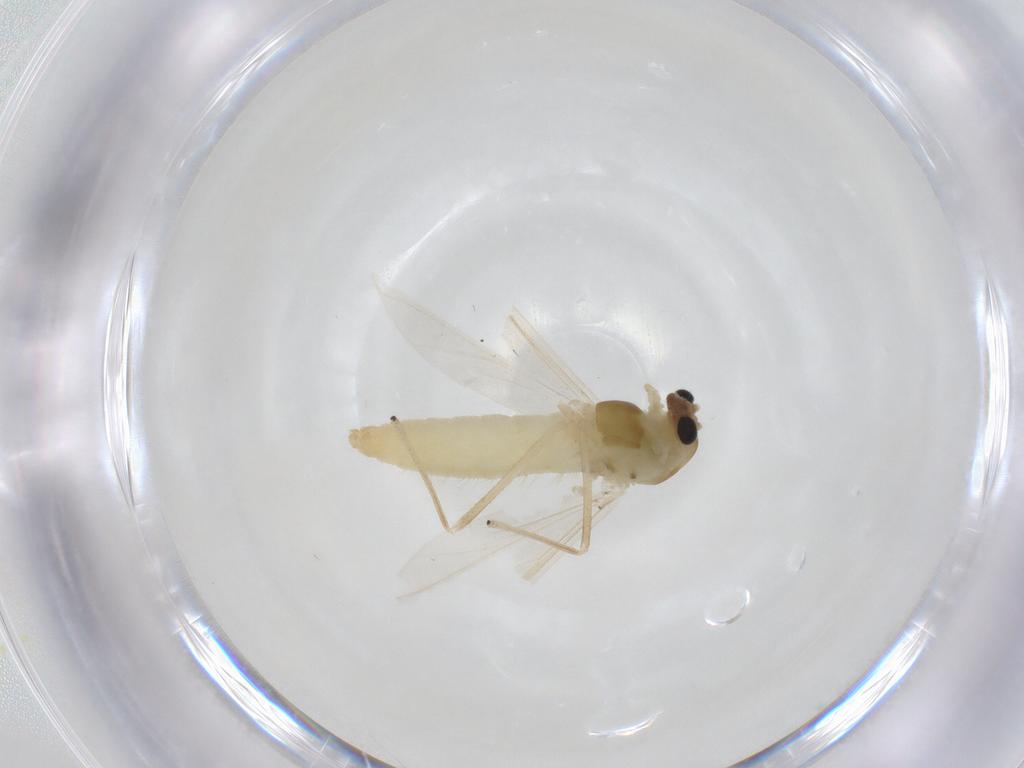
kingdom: Animalia
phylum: Arthropoda
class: Insecta
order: Diptera
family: Chironomidae
